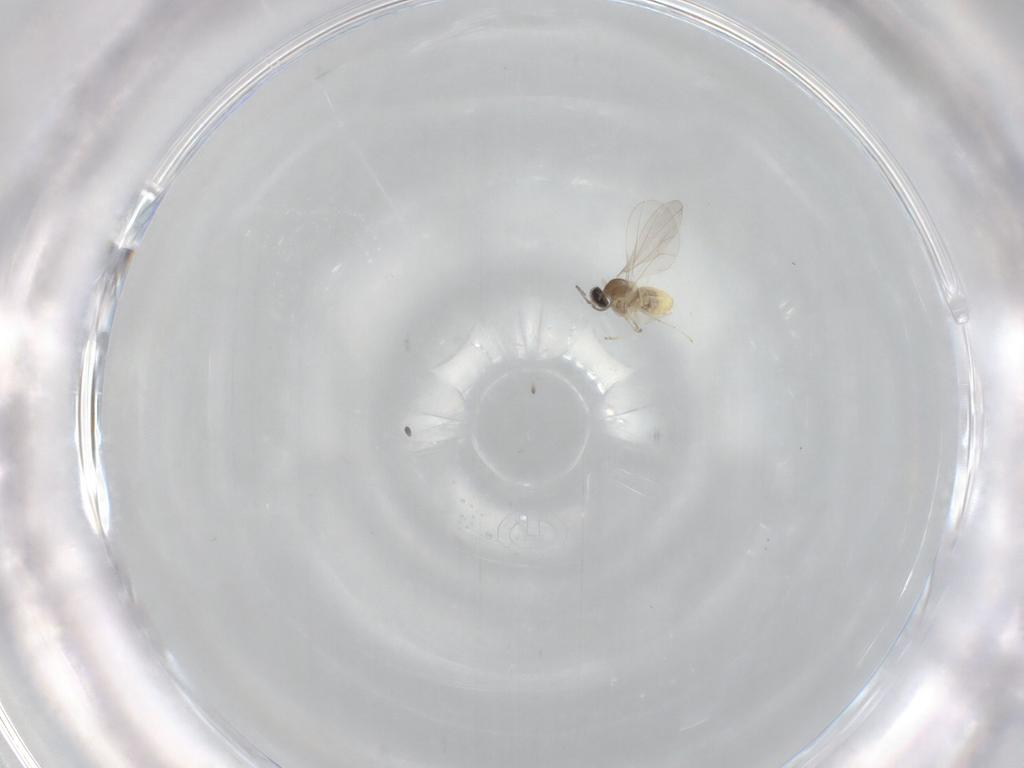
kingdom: Animalia
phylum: Arthropoda
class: Insecta
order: Diptera
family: Cecidomyiidae
